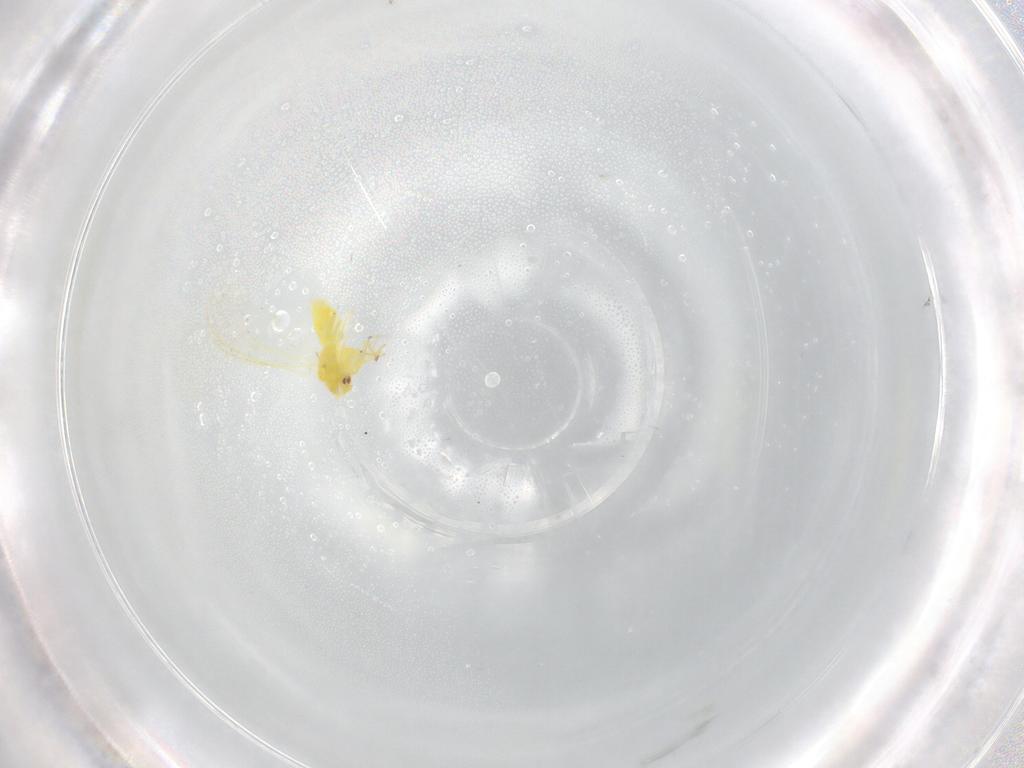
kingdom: Animalia
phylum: Arthropoda
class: Insecta
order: Hemiptera
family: Aleyrodidae
